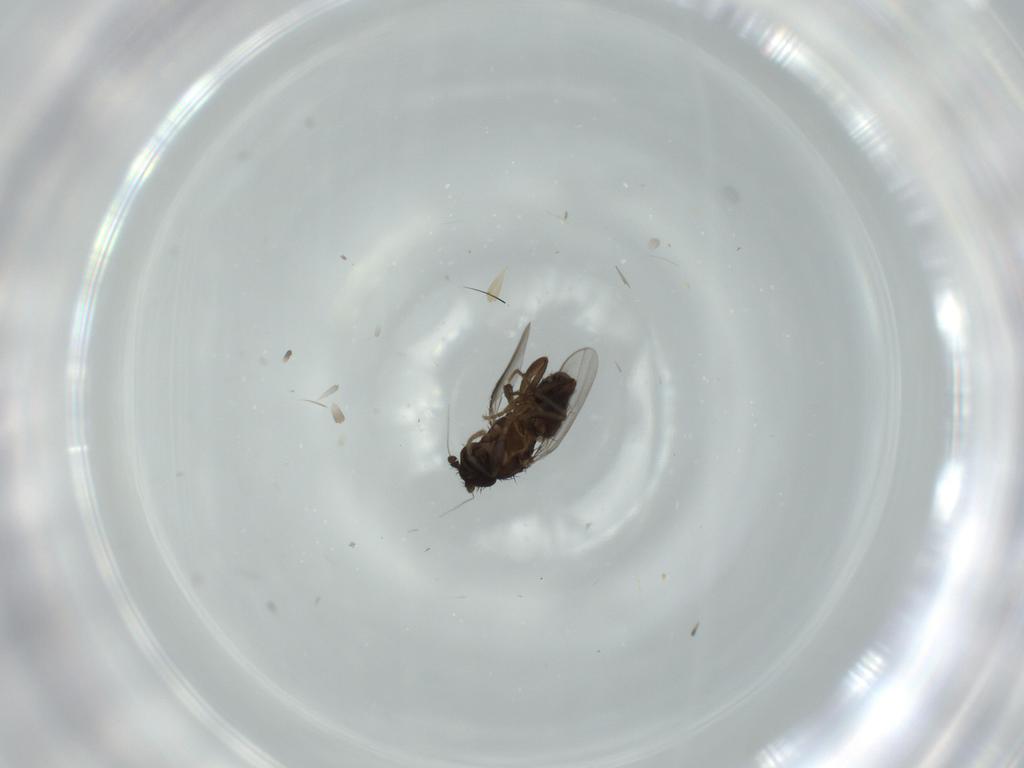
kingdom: Animalia
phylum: Arthropoda
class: Insecta
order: Diptera
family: Sphaeroceridae
